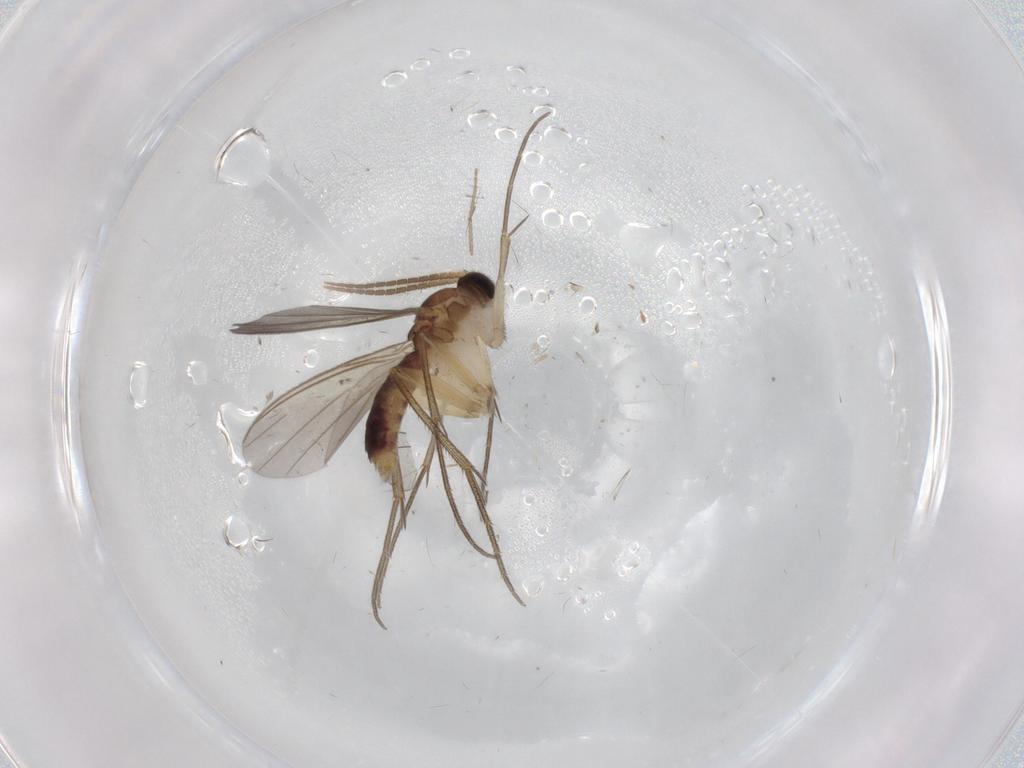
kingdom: Animalia
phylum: Arthropoda
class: Insecta
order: Diptera
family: Mycetophilidae
